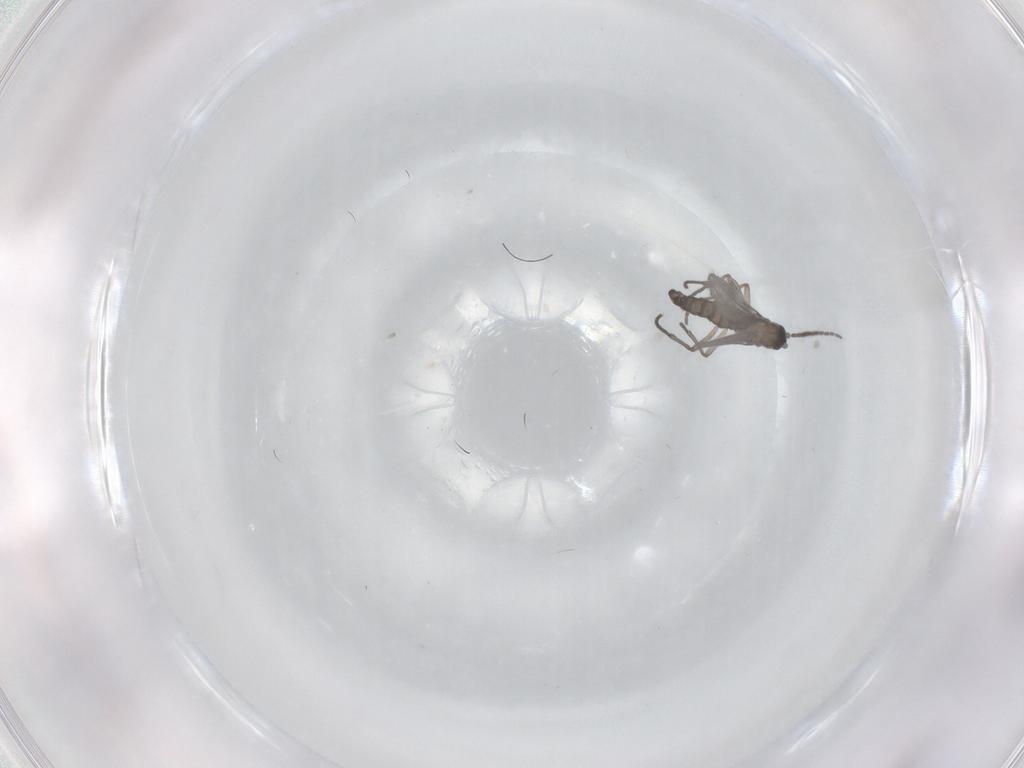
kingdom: Animalia
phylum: Arthropoda
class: Insecta
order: Diptera
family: Sciaridae
